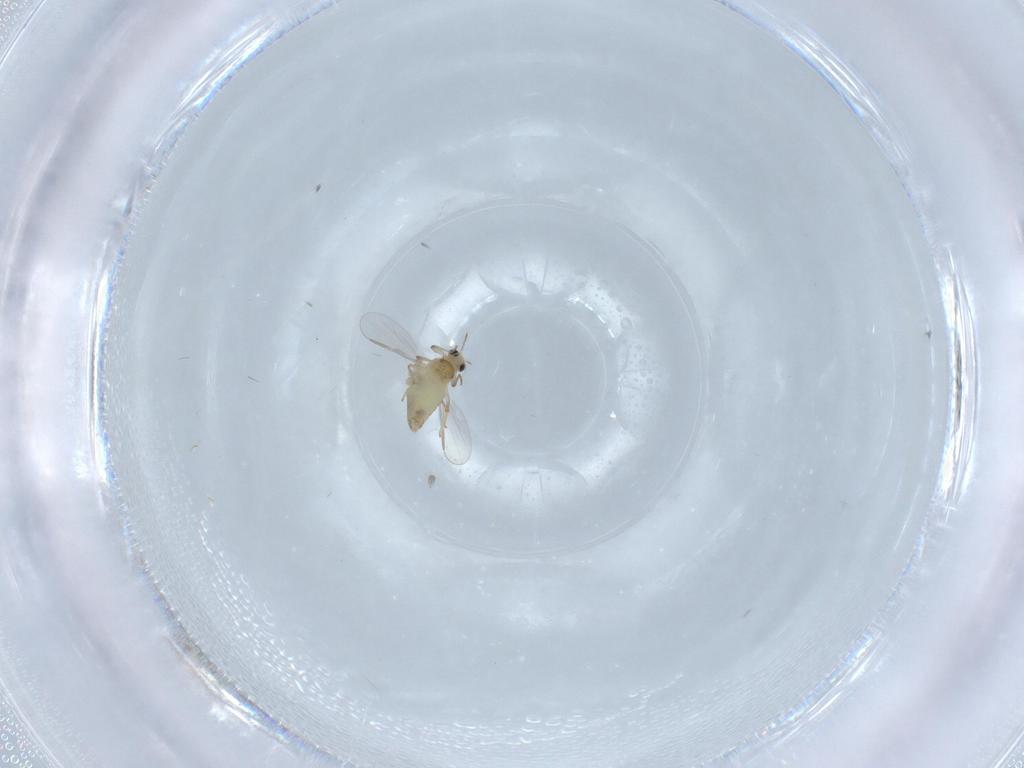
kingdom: Animalia
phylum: Arthropoda
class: Insecta
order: Diptera
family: Chironomidae
